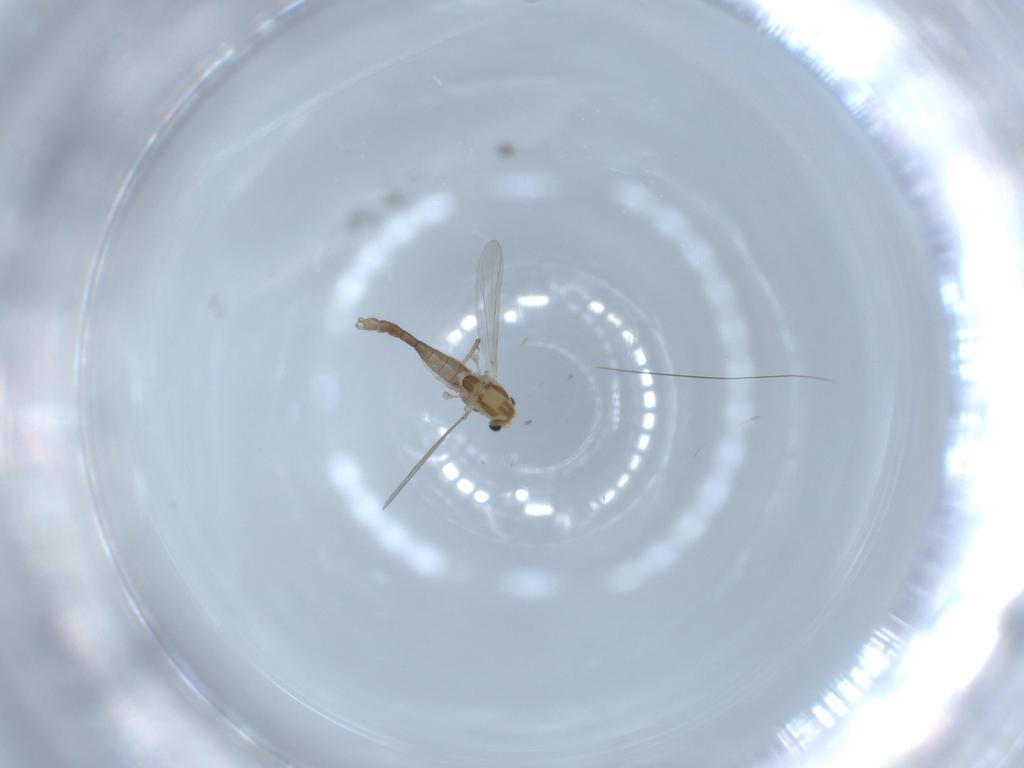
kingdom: Animalia
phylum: Arthropoda
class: Insecta
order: Diptera
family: Chironomidae
